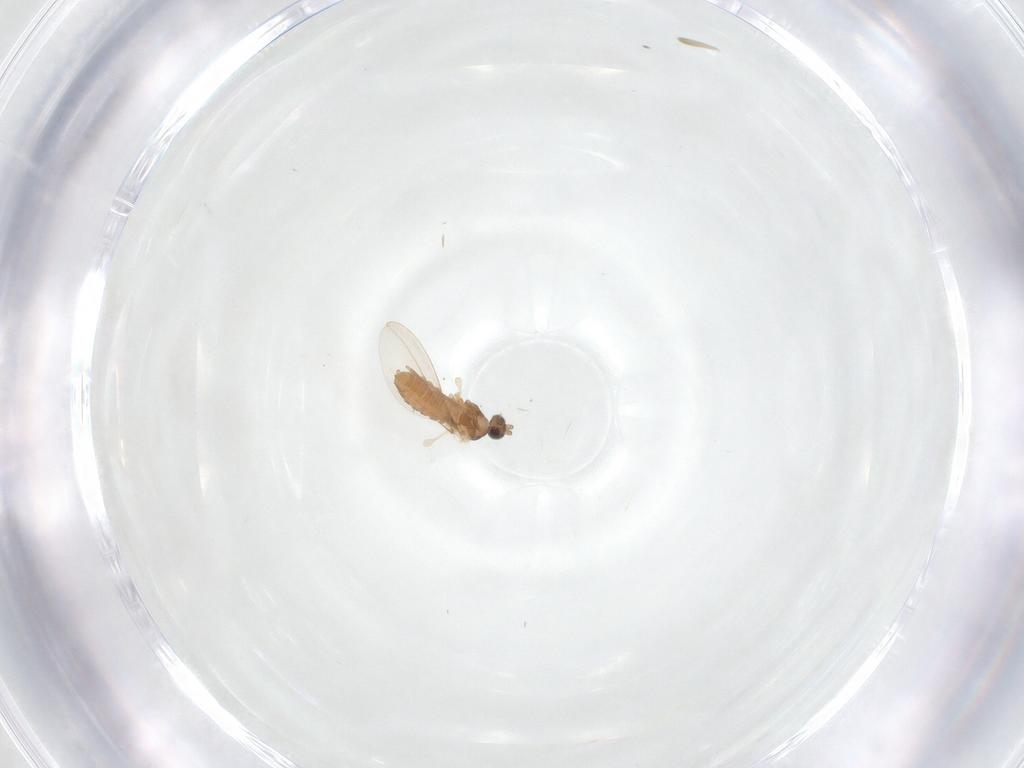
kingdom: Animalia
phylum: Arthropoda
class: Insecta
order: Diptera
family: Cecidomyiidae
